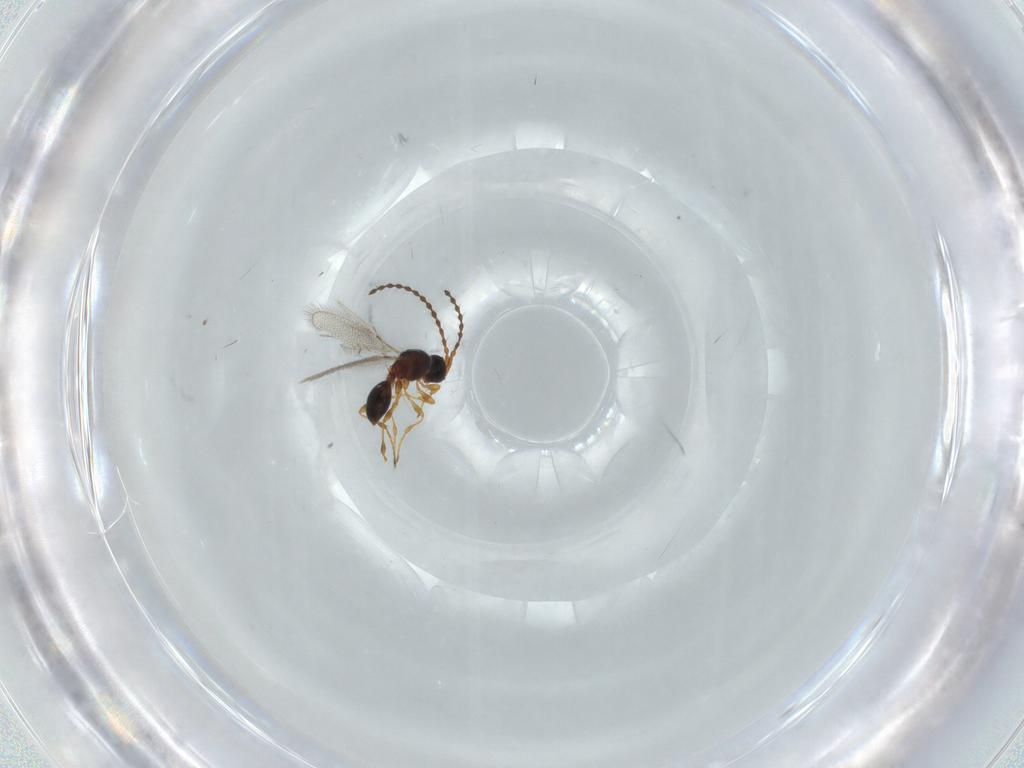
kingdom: Animalia
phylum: Arthropoda
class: Insecta
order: Hymenoptera
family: Diapriidae
